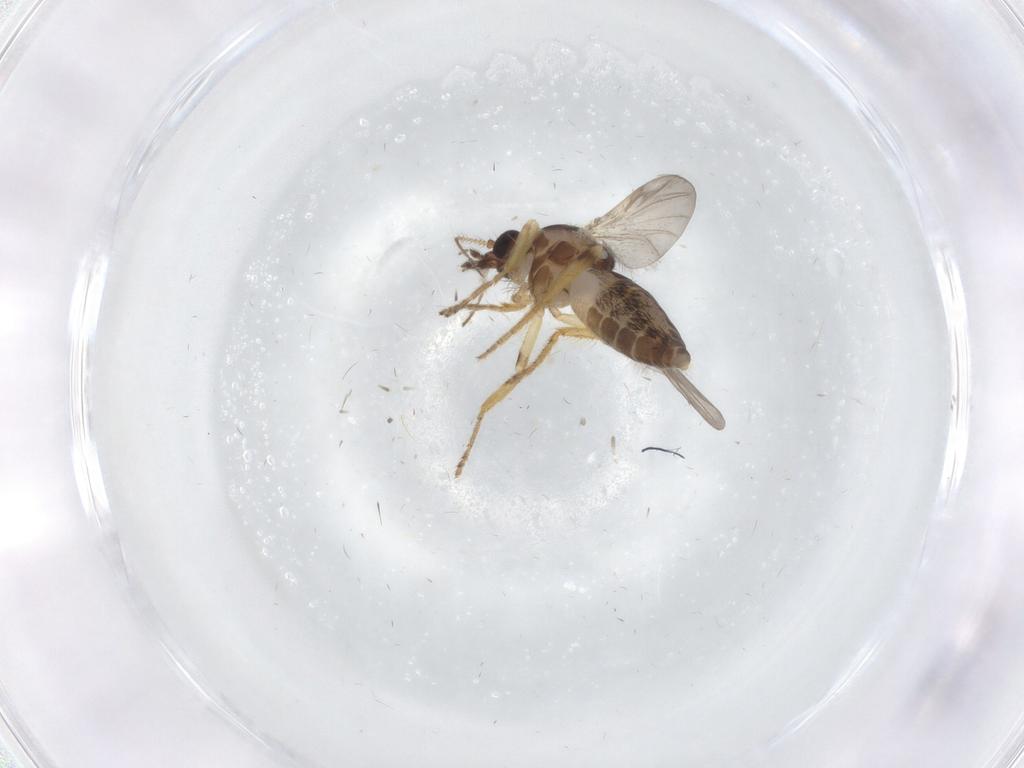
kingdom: Animalia
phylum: Arthropoda
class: Insecta
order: Diptera
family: Ceratopogonidae
